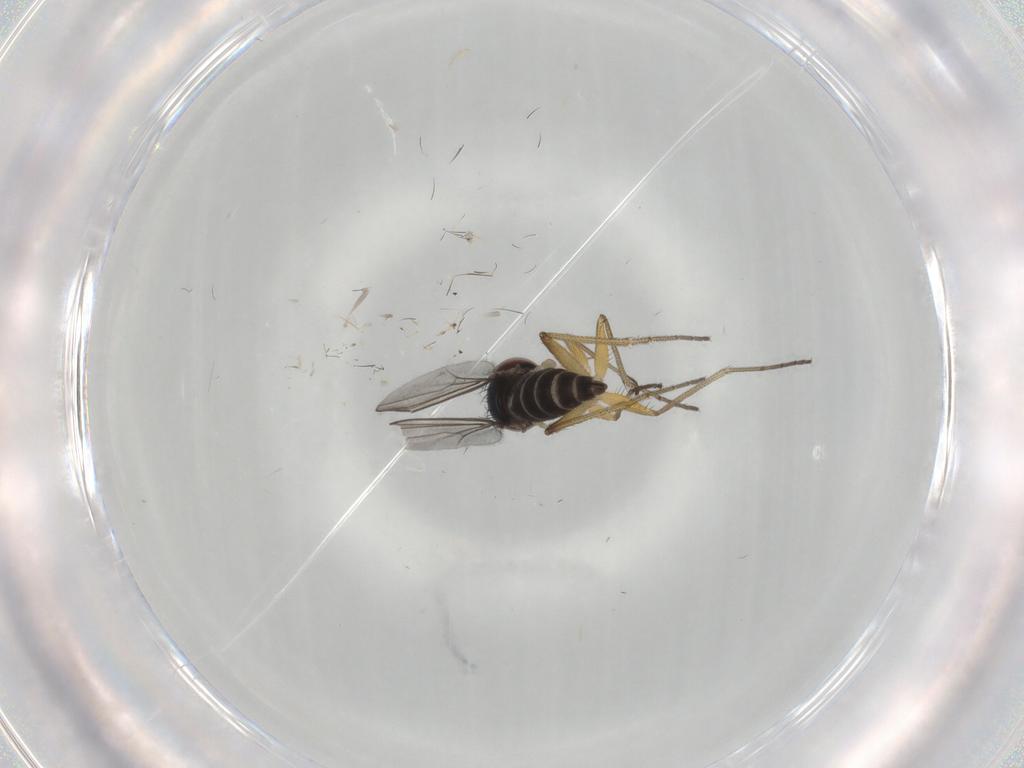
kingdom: Animalia
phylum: Arthropoda
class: Insecta
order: Diptera
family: Dolichopodidae
